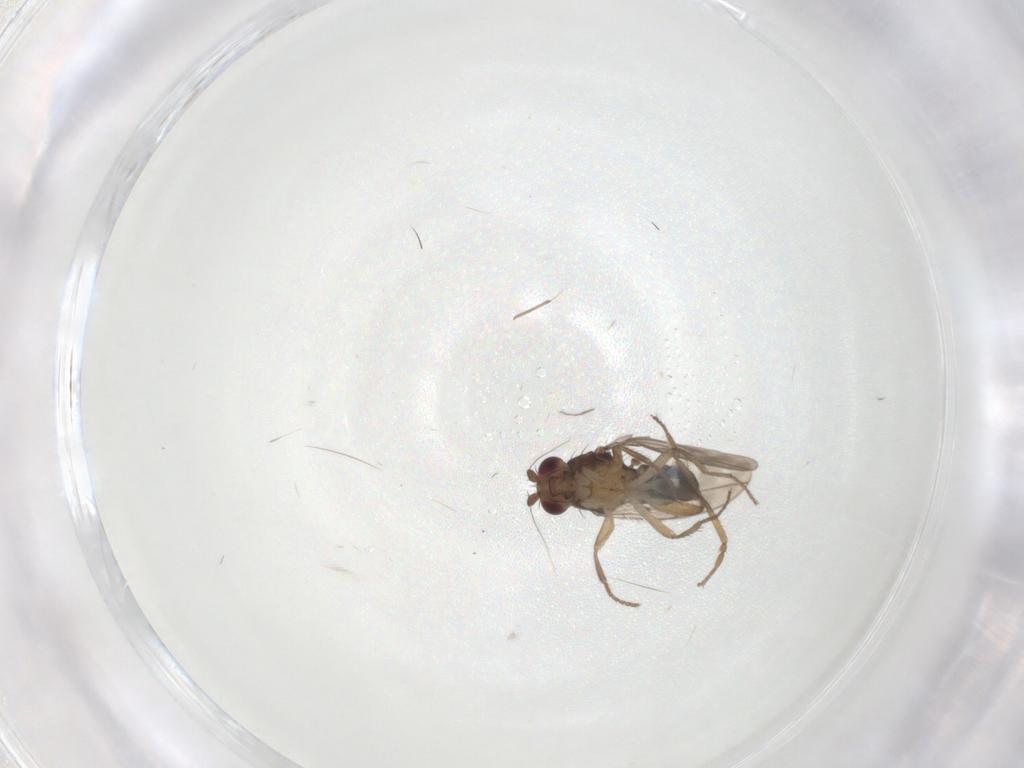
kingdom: Animalia
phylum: Arthropoda
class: Insecta
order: Diptera
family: Sphaeroceridae
